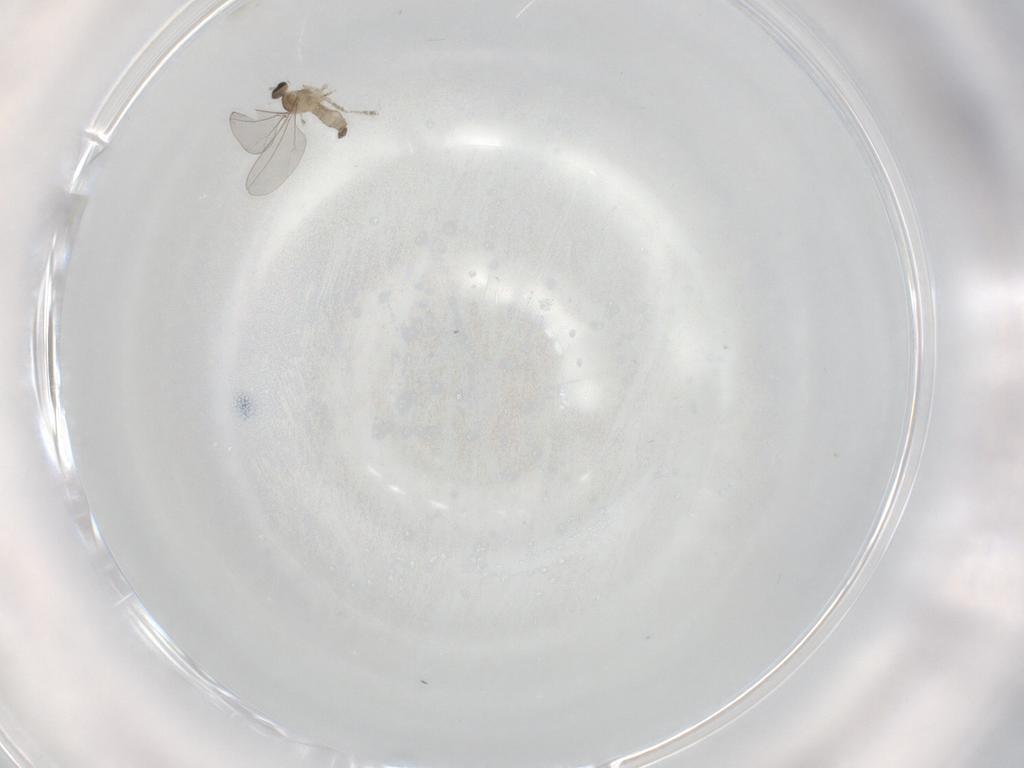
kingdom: Animalia
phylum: Arthropoda
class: Insecta
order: Diptera
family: Cecidomyiidae
